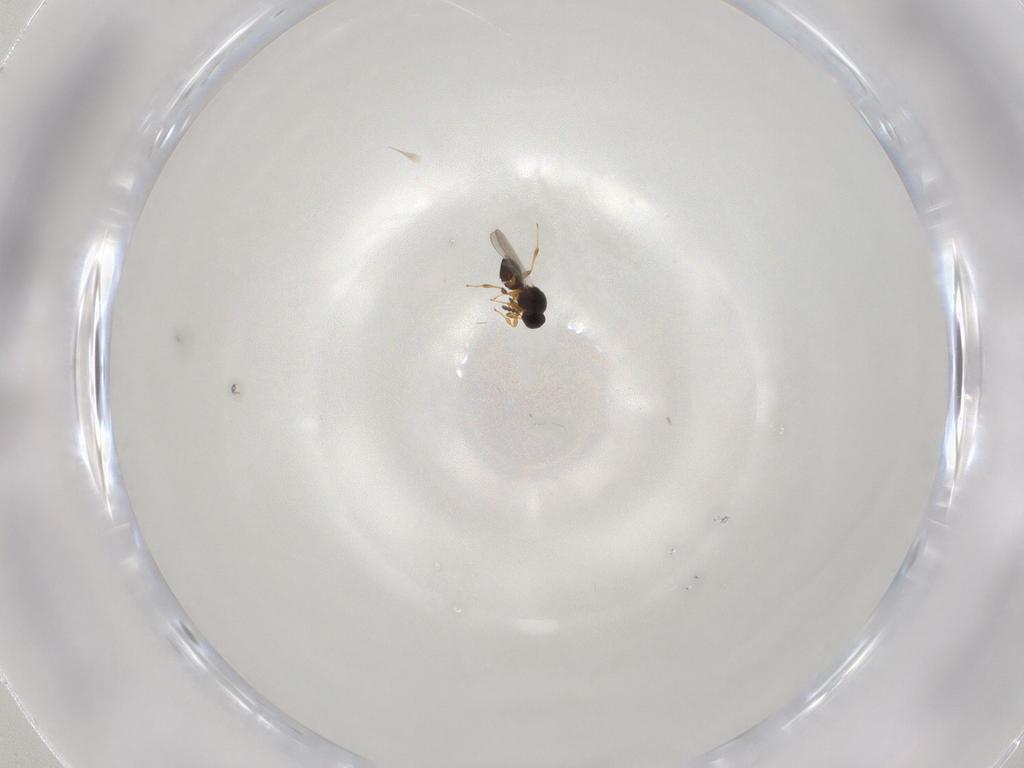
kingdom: Animalia
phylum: Arthropoda
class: Insecta
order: Hymenoptera
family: Platygastridae
